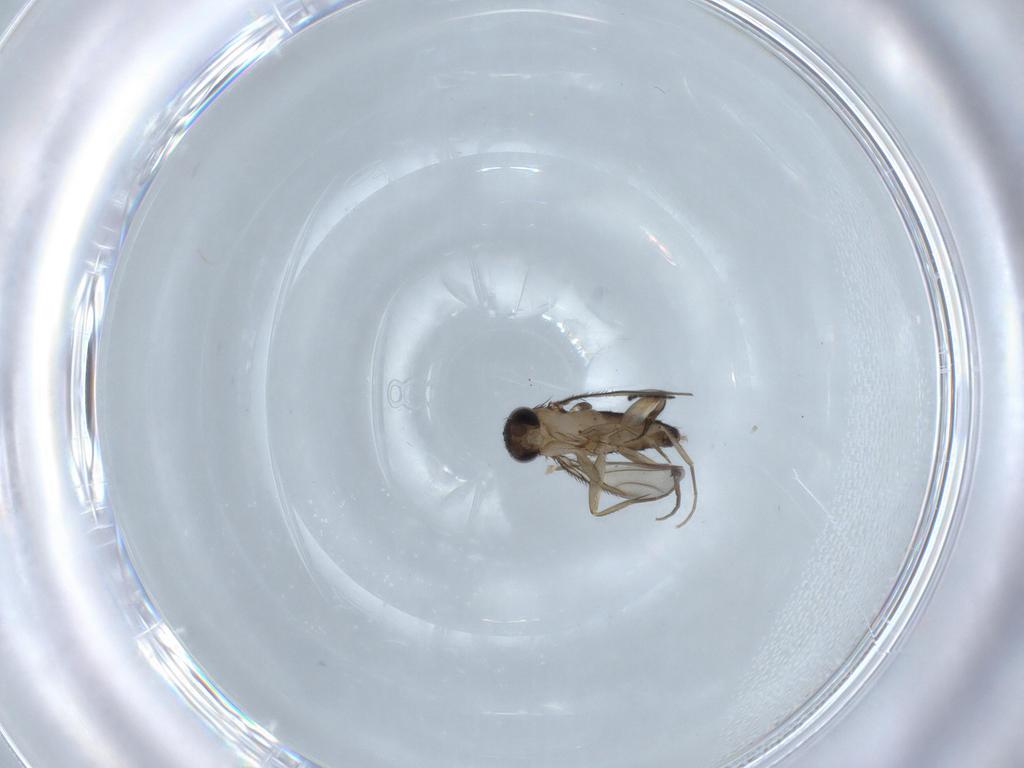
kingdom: Animalia
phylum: Arthropoda
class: Insecta
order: Diptera
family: Phoridae
